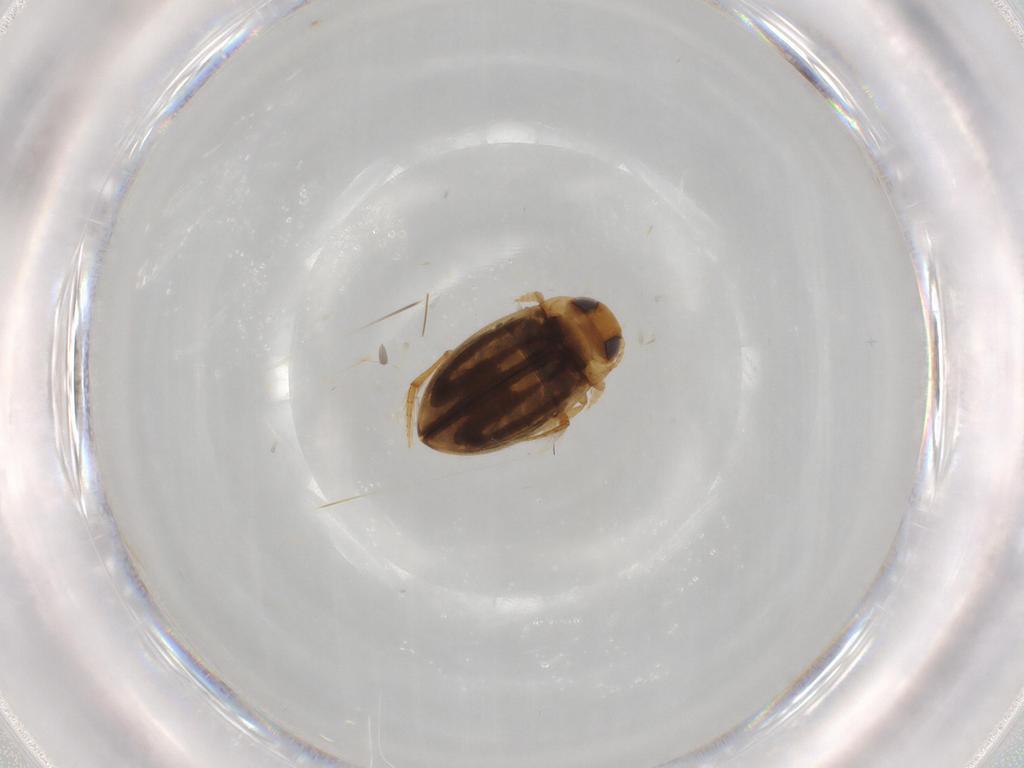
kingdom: Animalia
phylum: Arthropoda
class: Insecta
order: Coleoptera
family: Dytiscidae
